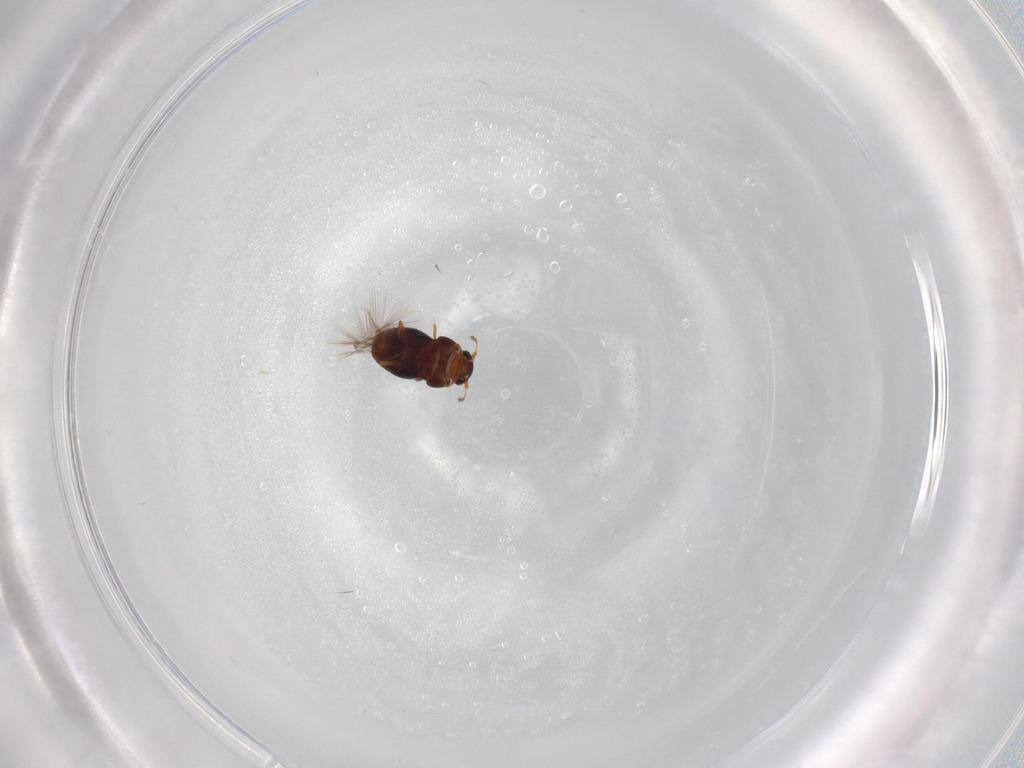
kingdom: Animalia
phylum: Arthropoda
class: Insecta
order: Coleoptera
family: Ptiliidae
